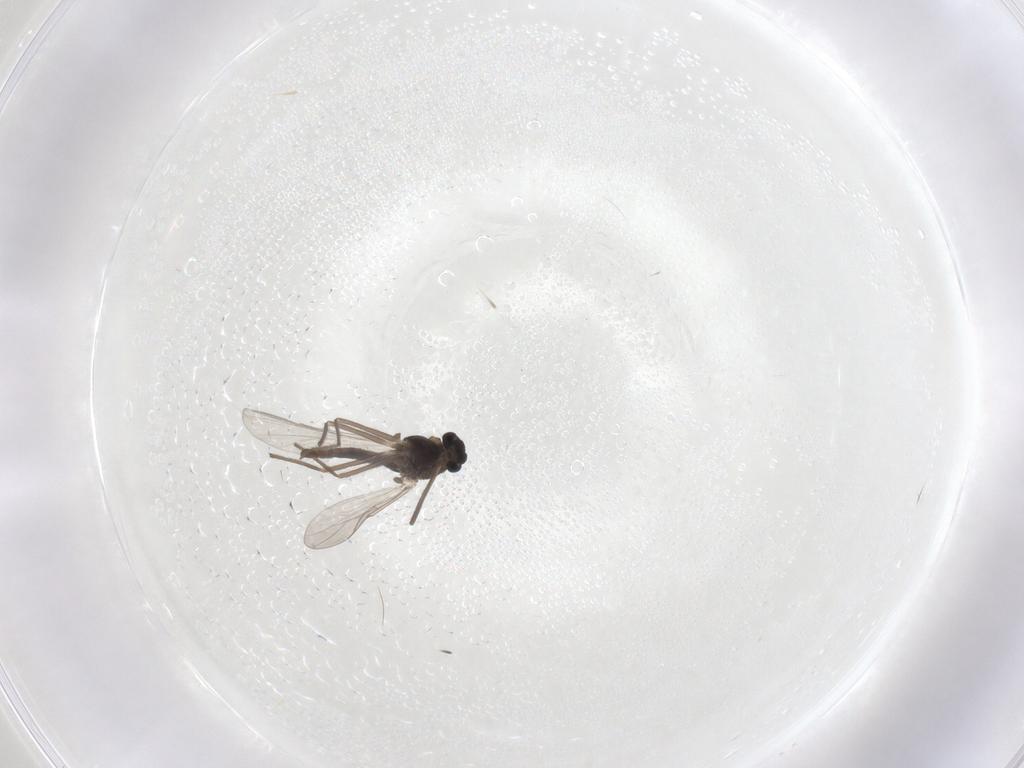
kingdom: Animalia
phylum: Arthropoda
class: Insecta
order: Diptera
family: Chironomidae
